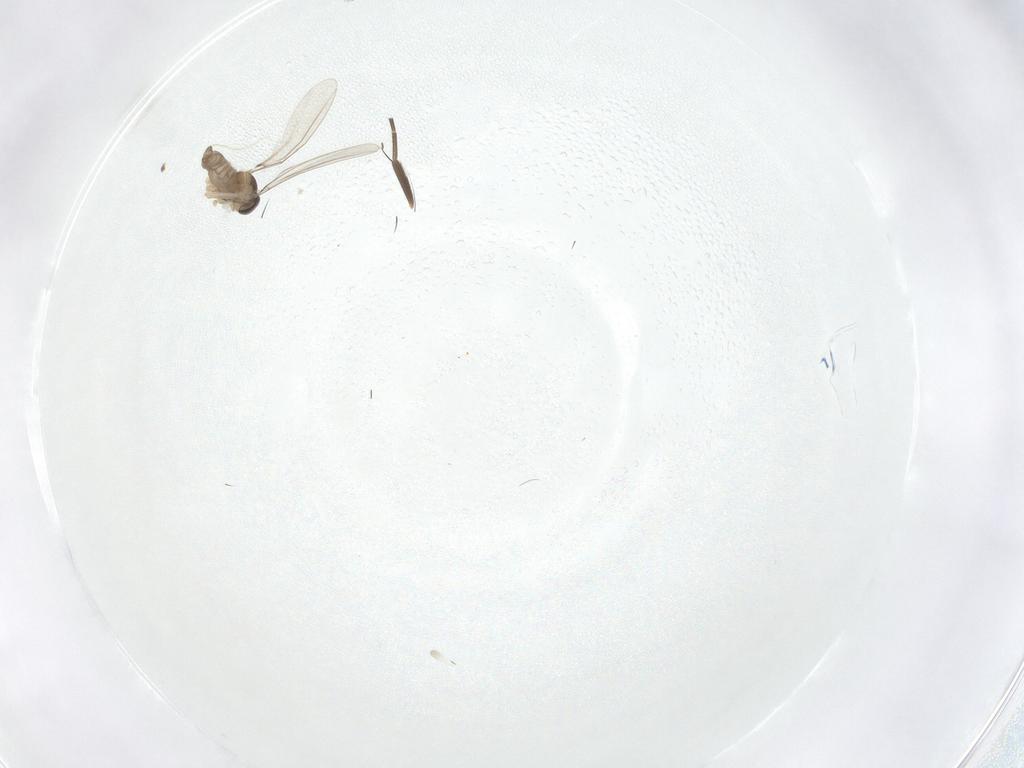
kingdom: Animalia
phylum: Arthropoda
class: Insecta
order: Diptera
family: Cecidomyiidae
